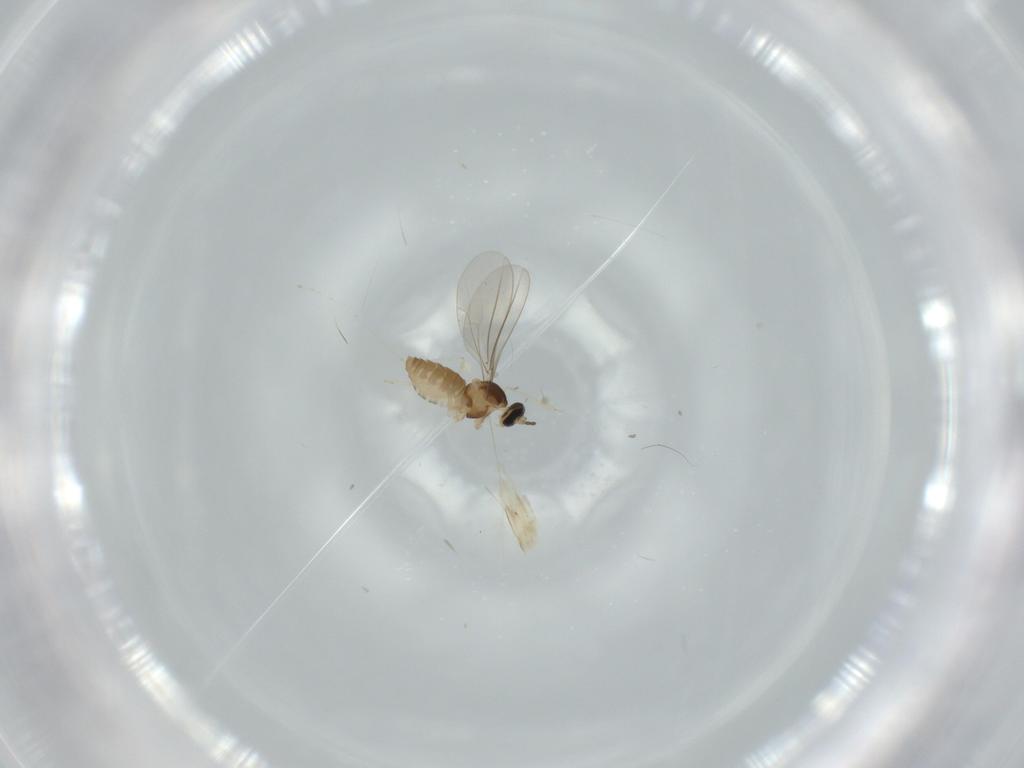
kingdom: Animalia
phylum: Arthropoda
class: Insecta
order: Diptera
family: Cecidomyiidae
